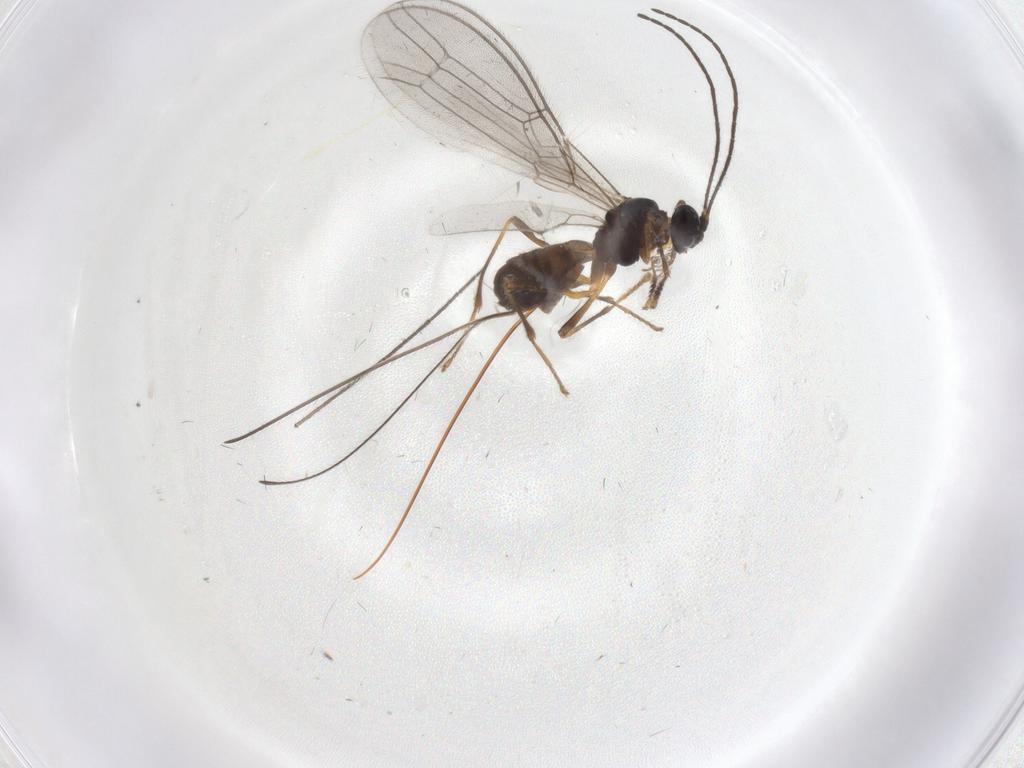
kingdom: Animalia
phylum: Arthropoda
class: Insecta
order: Hymenoptera
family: Braconidae
